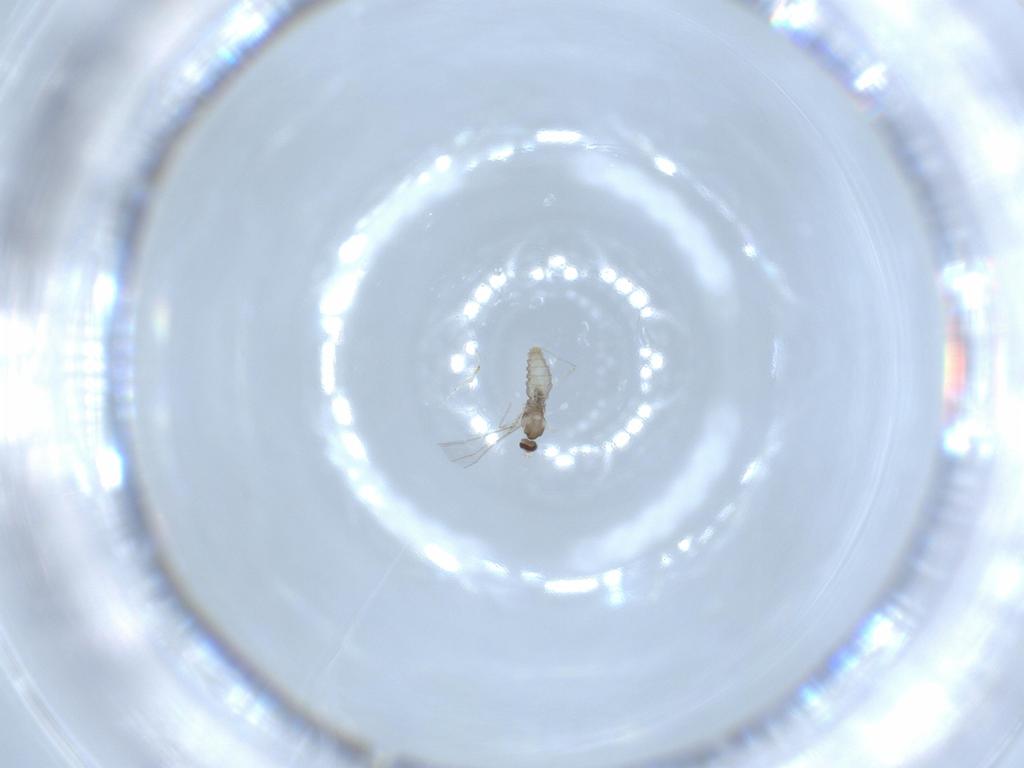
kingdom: Animalia
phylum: Arthropoda
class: Insecta
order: Diptera
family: Cecidomyiidae
